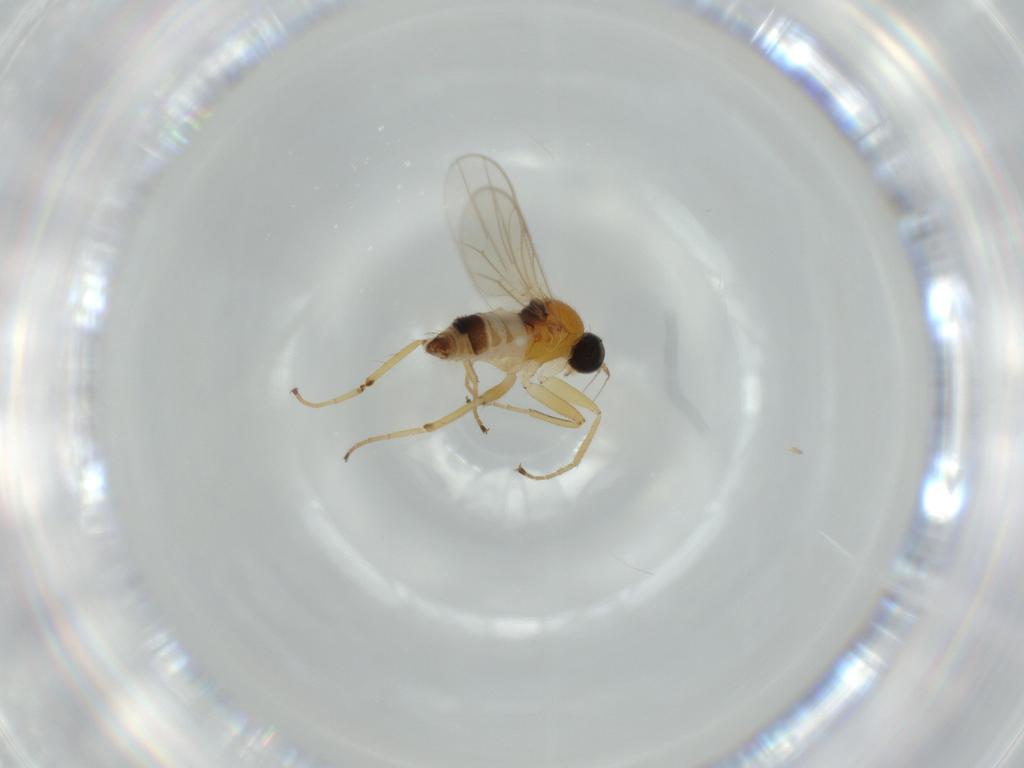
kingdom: Animalia
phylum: Arthropoda
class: Insecta
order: Diptera
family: Hybotidae
